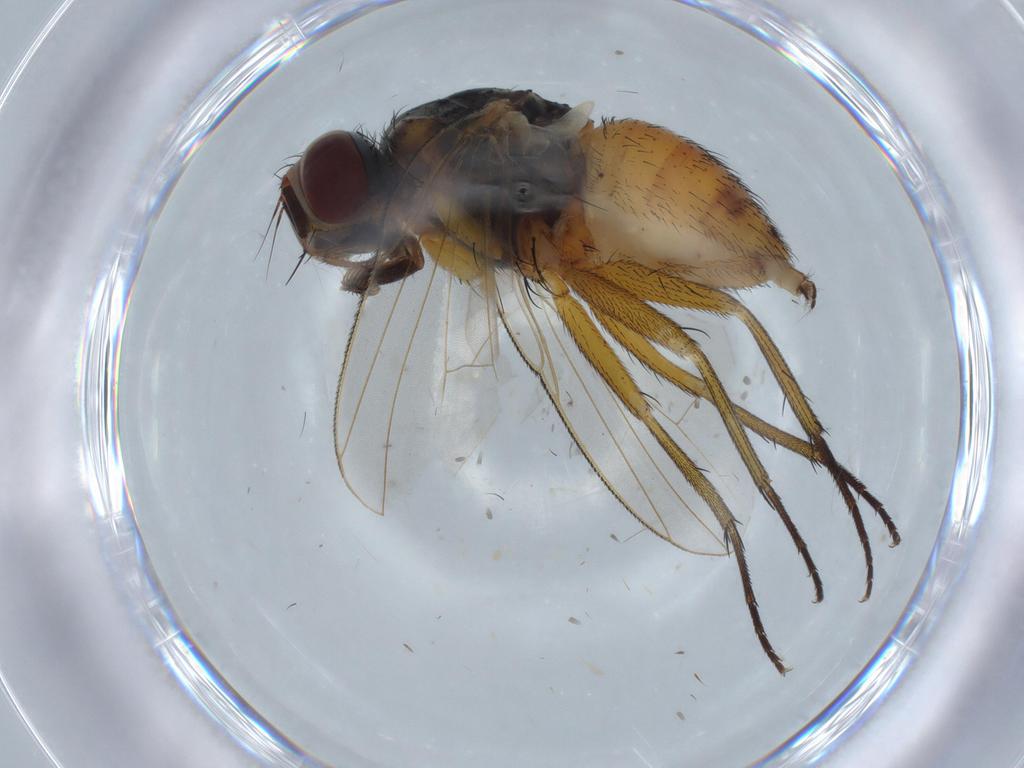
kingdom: Animalia
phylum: Arthropoda
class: Insecta
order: Diptera
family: Muscidae
